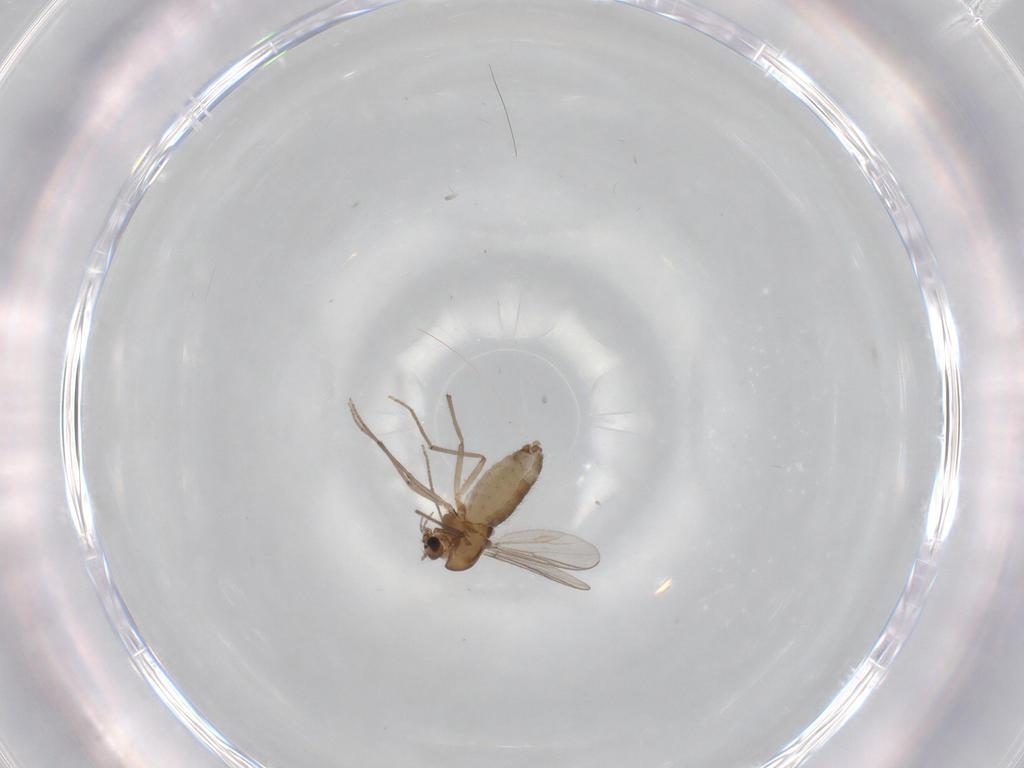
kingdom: Animalia
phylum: Arthropoda
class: Insecta
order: Diptera
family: Chironomidae
